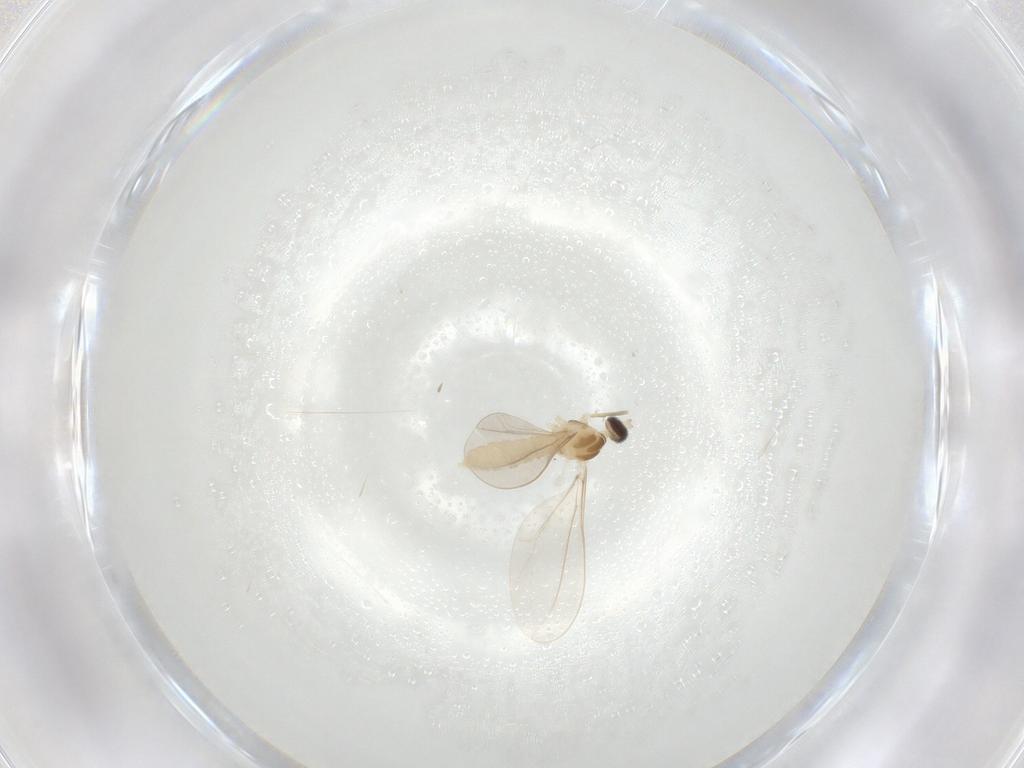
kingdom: Animalia
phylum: Arthropoda
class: Insecta
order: Diptera
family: Cecidomyiidae
